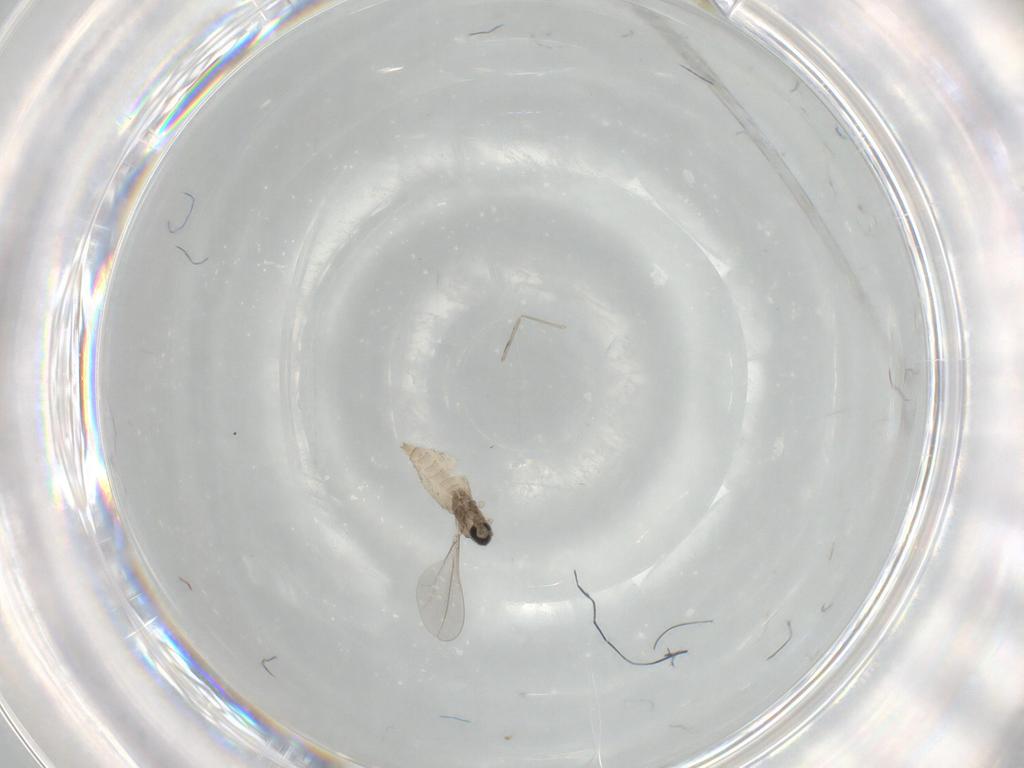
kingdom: Animalia
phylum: Arthropoda
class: Insecta
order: Diptera
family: Cecidomyiidae
